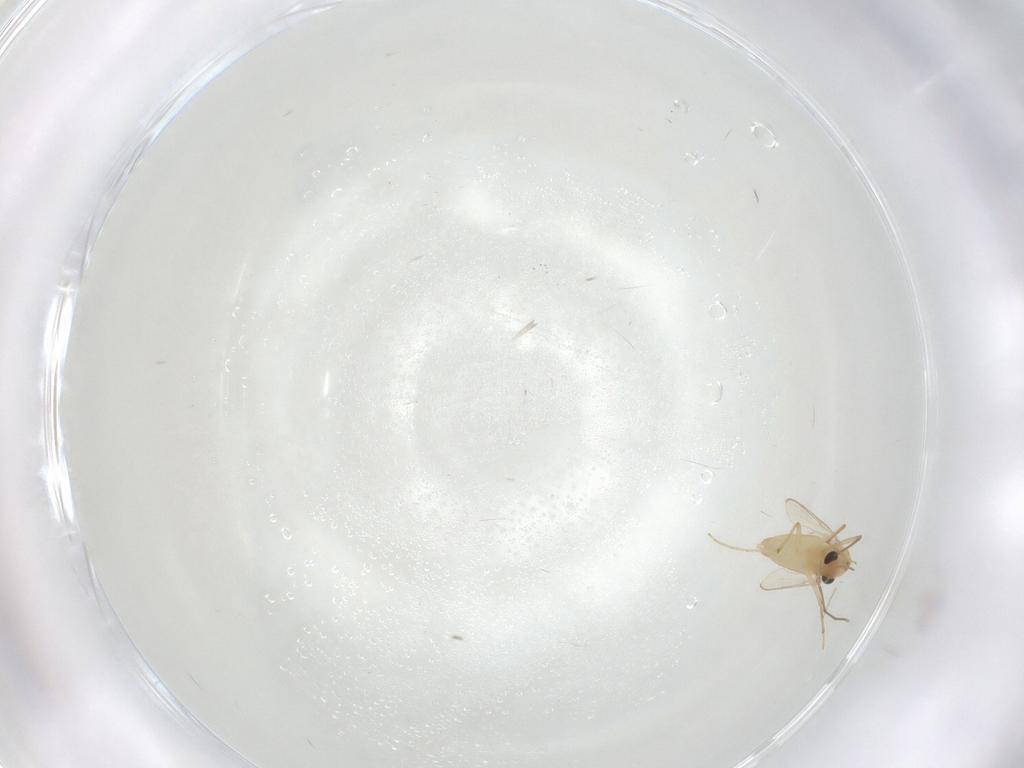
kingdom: Animalia
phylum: Arthropoda
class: Insecta
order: Diptera
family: Chironomidae
